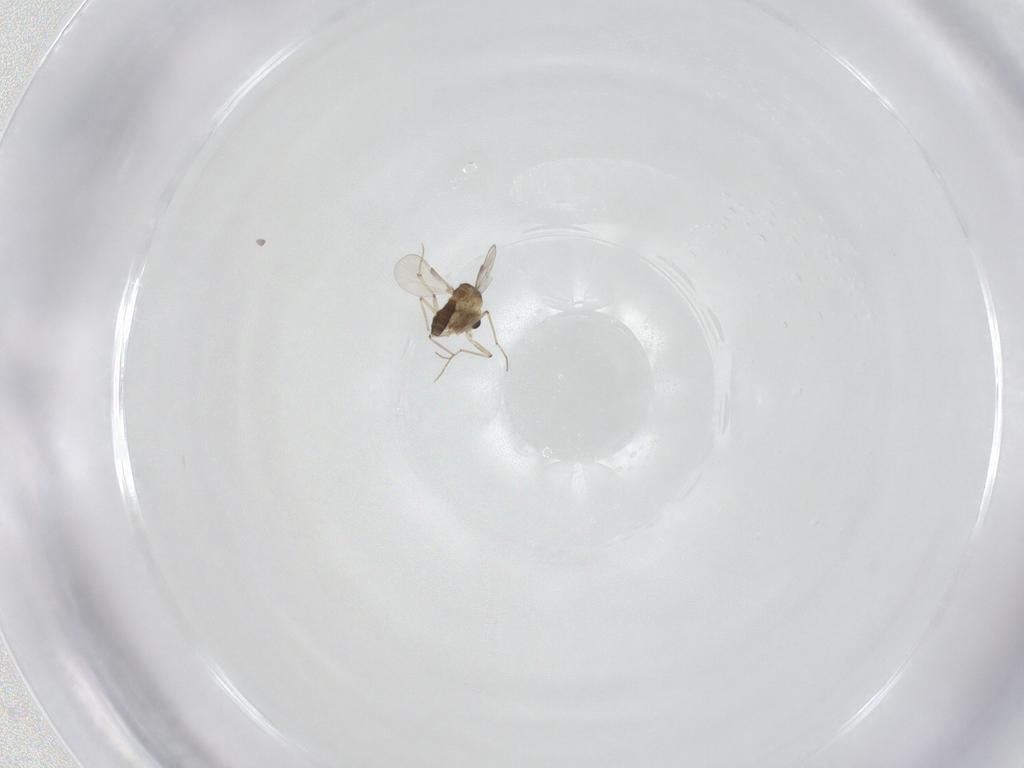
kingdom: Animalia
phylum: Arthropoda
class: Insecta
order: Diptera
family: Chironomidae
